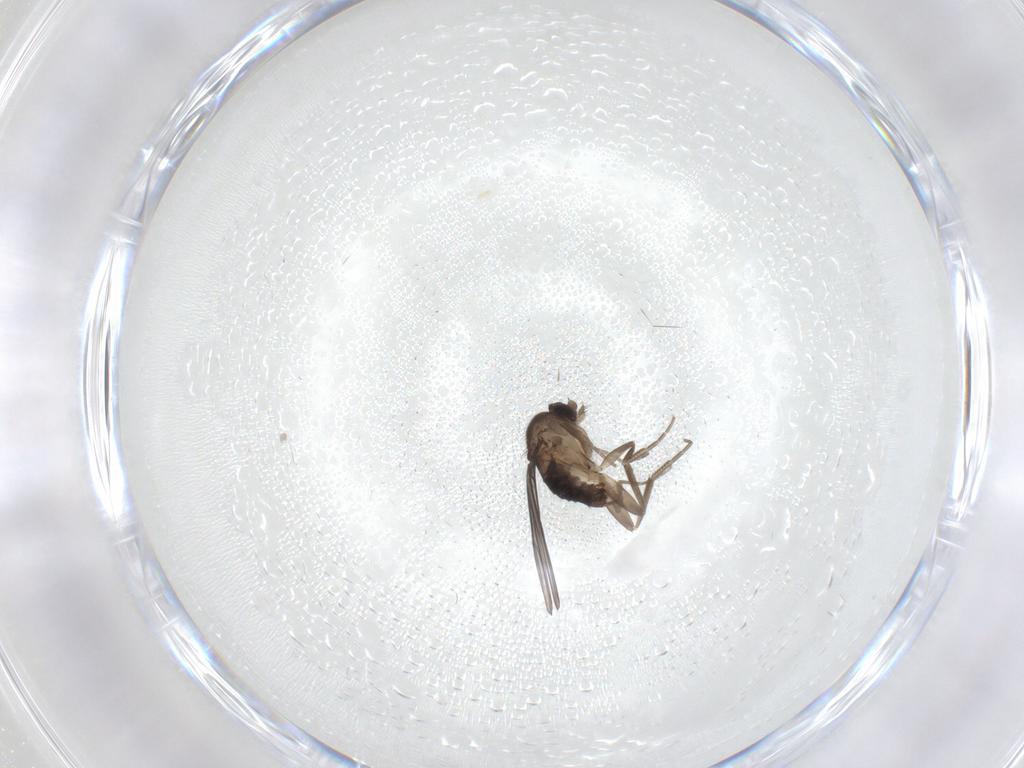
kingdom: Animalia
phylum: Arthropoda
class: Insecta
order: Diptera
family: Phoridae
